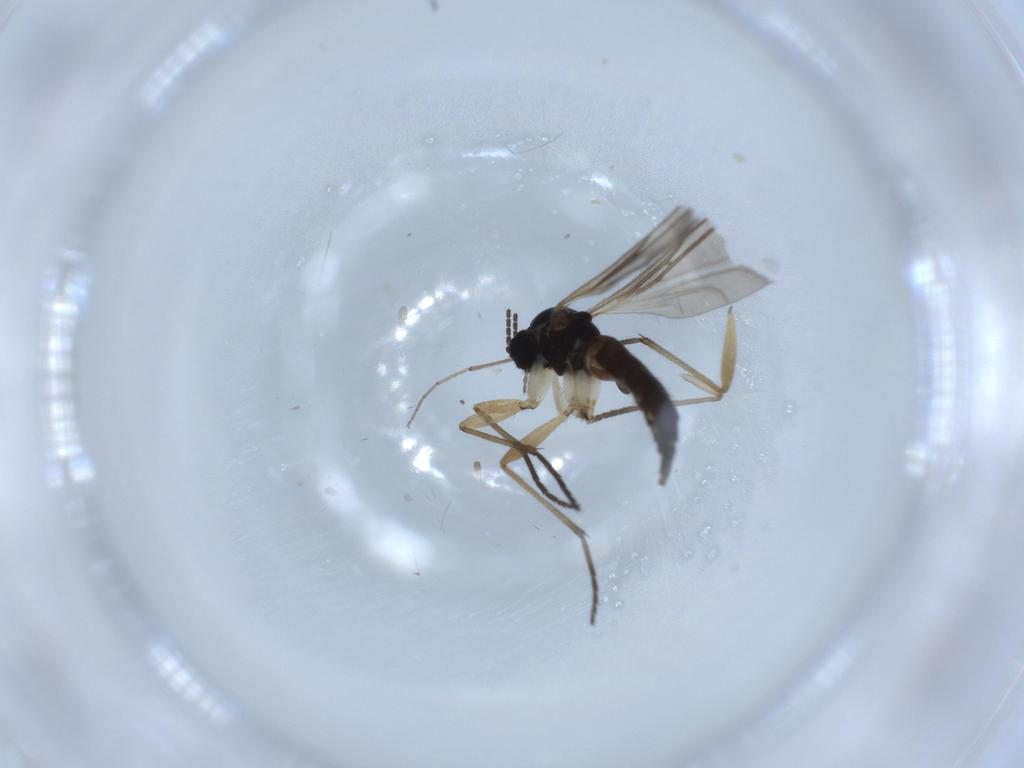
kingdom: Animalia
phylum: Arthropoda
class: Insecta
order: Diptera
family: Sciaridae
